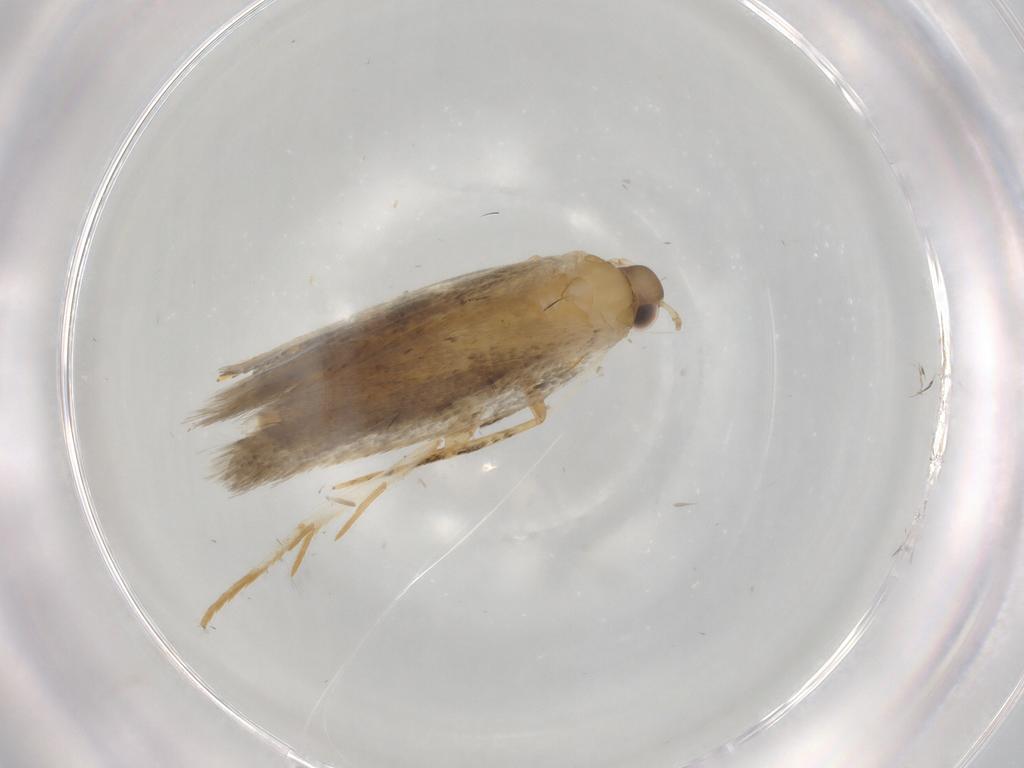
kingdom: Animalia
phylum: Arthropoda
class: Insecta
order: Lepidoptera
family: Autostichidae
